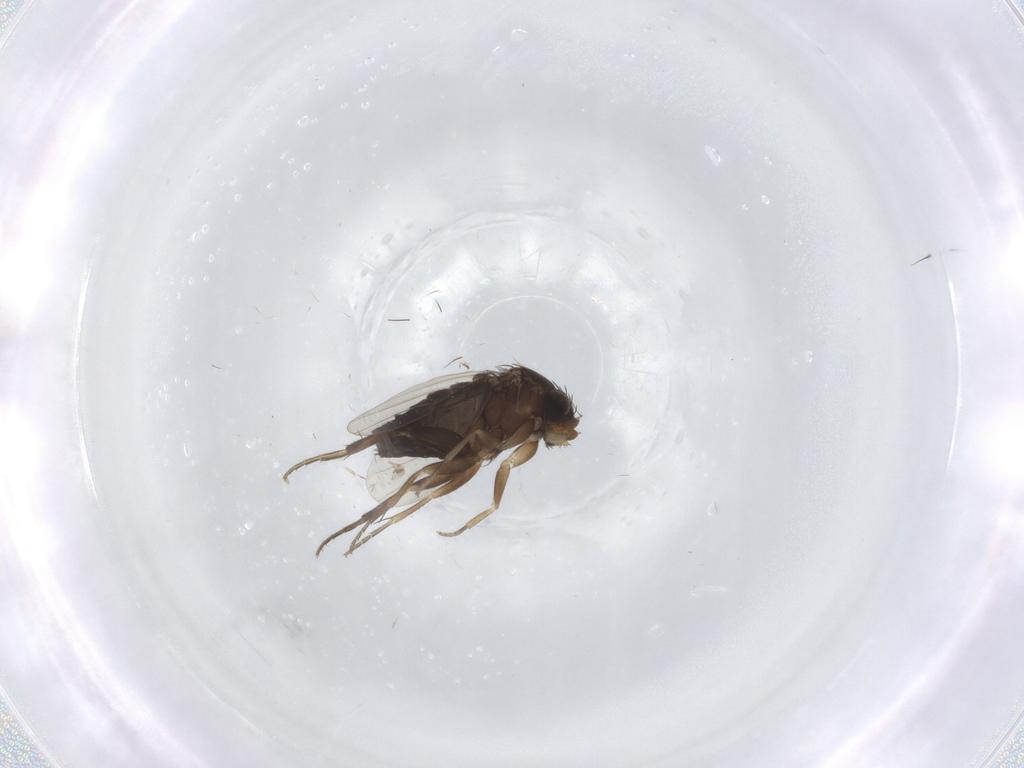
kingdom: Animalia
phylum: Arthropoda
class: Insecta
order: Diptera
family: Phoridae
